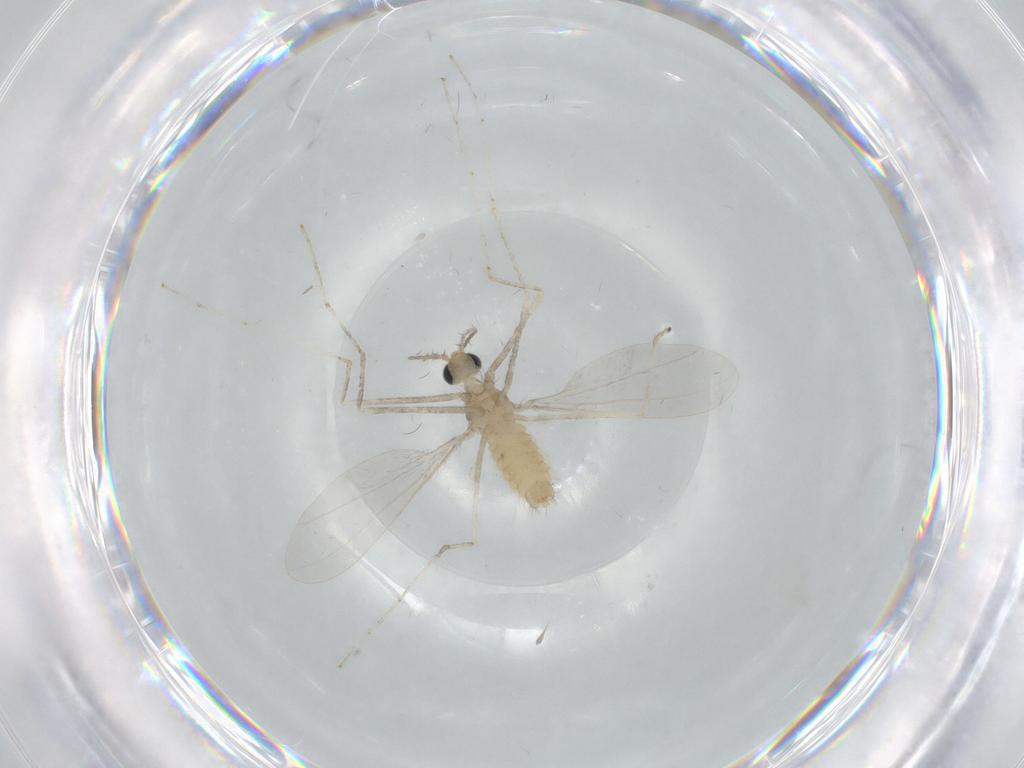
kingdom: Animalia
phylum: Arthropoda
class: Insecta
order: Diptera
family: Cecidomyiidae
